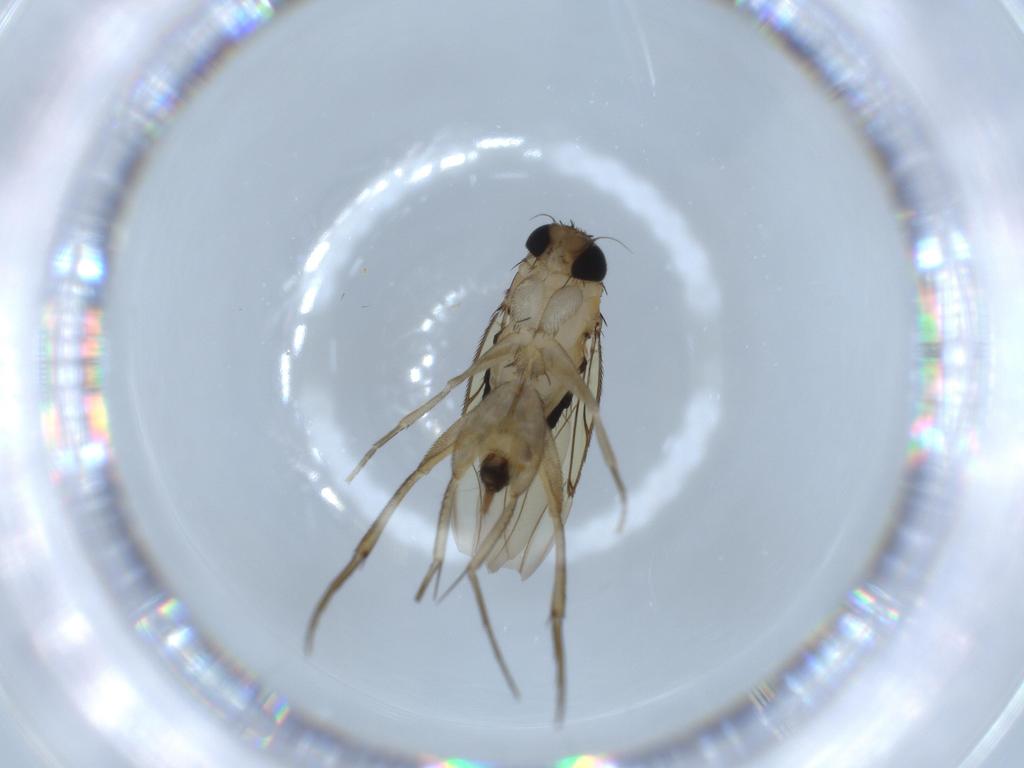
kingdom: Animalia
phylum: Arthropoda
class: Insecta
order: Diptera
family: Phoridae
